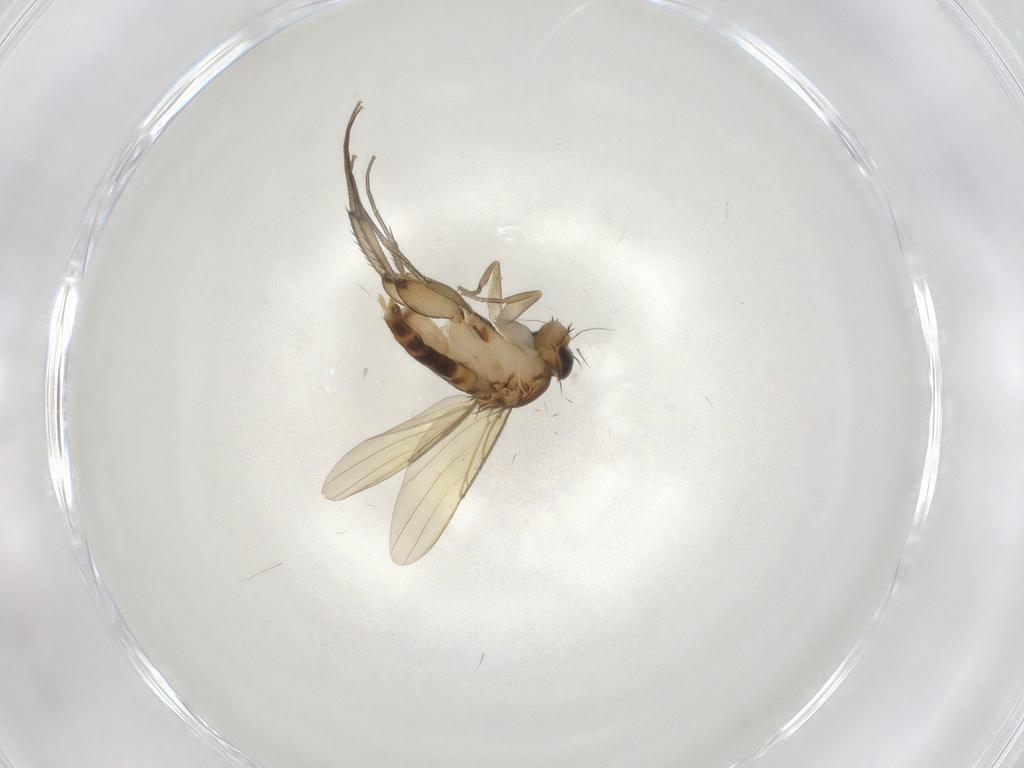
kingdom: Animalia
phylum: Arthropoda
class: Insecta
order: Diptera
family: Phoridae
